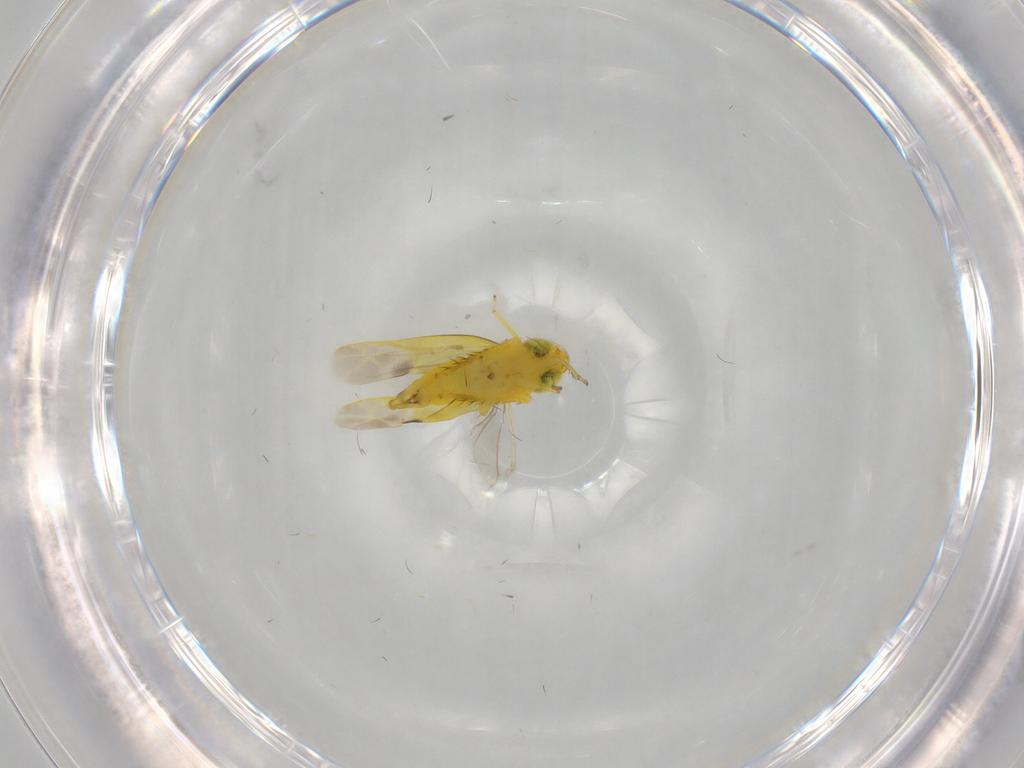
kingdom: Animalia
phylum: Arthropoda
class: Insecta
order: Hemiptera
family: Cicadellidae
